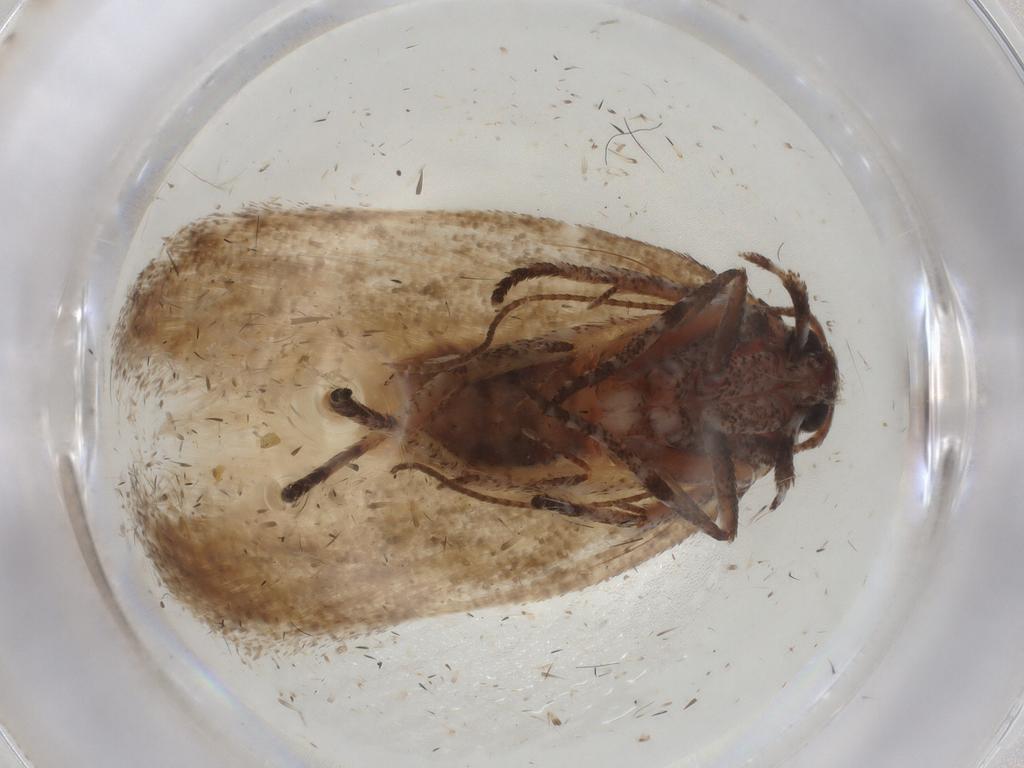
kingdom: Animalia
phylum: Arthropoda
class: Insecta
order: Lepidoptera
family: Cosmopterigidae
